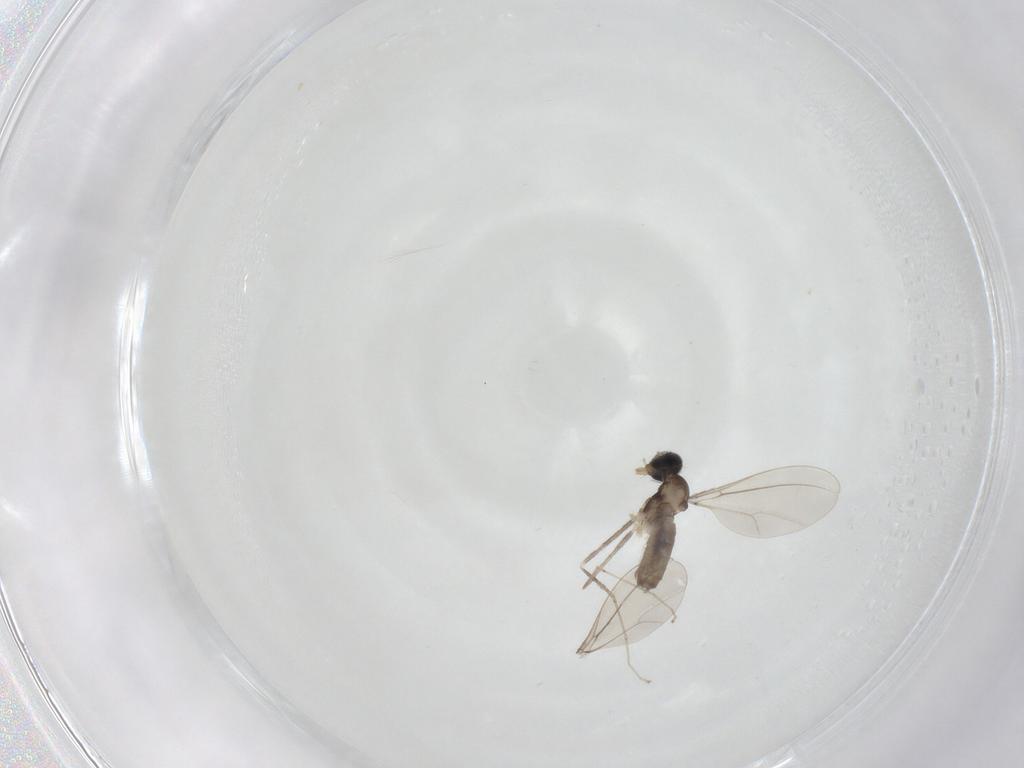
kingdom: Animalia
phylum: Arthropoda
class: Insecta
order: Diptera
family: Cecidomyiidae
